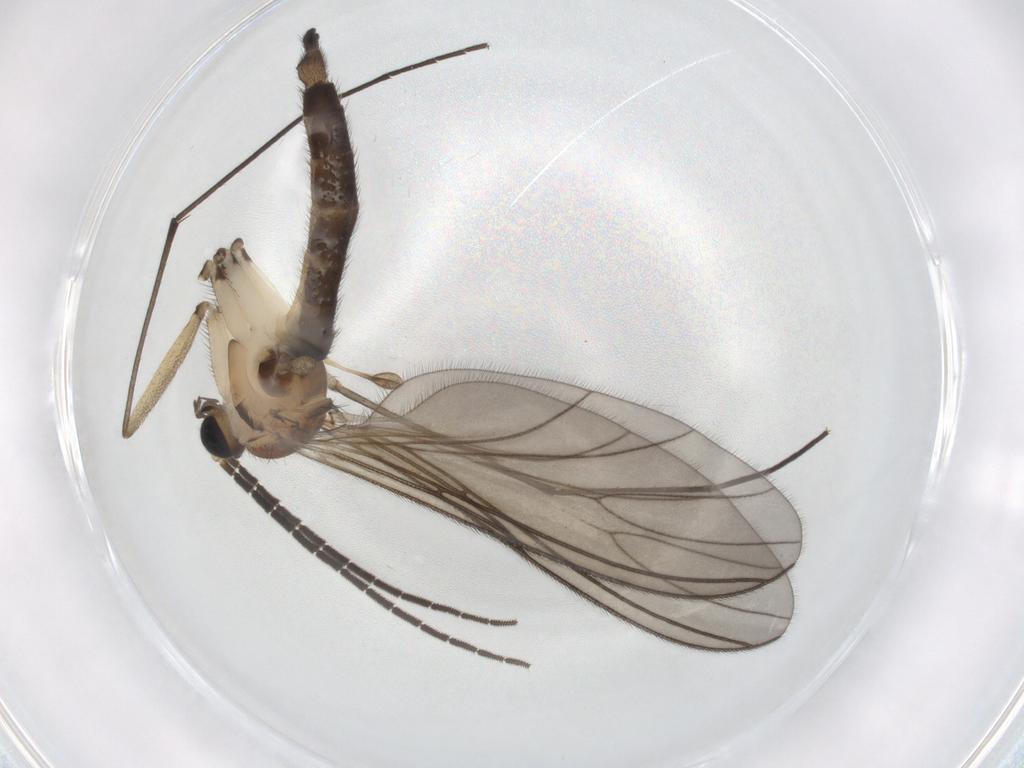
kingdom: Animalia
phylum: Arthropoda
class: Insecta
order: Diptera
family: Sciaridae
